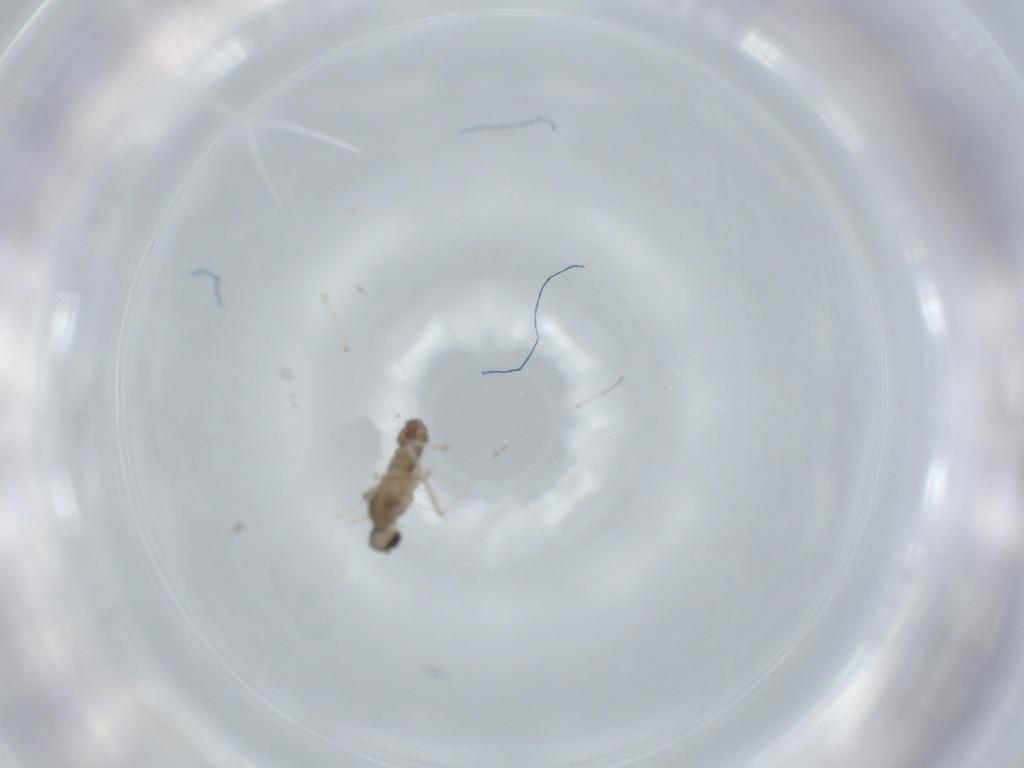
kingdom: Animalia
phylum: Arthropoda
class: Insecta
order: Diptera
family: Cecidomyiidae
